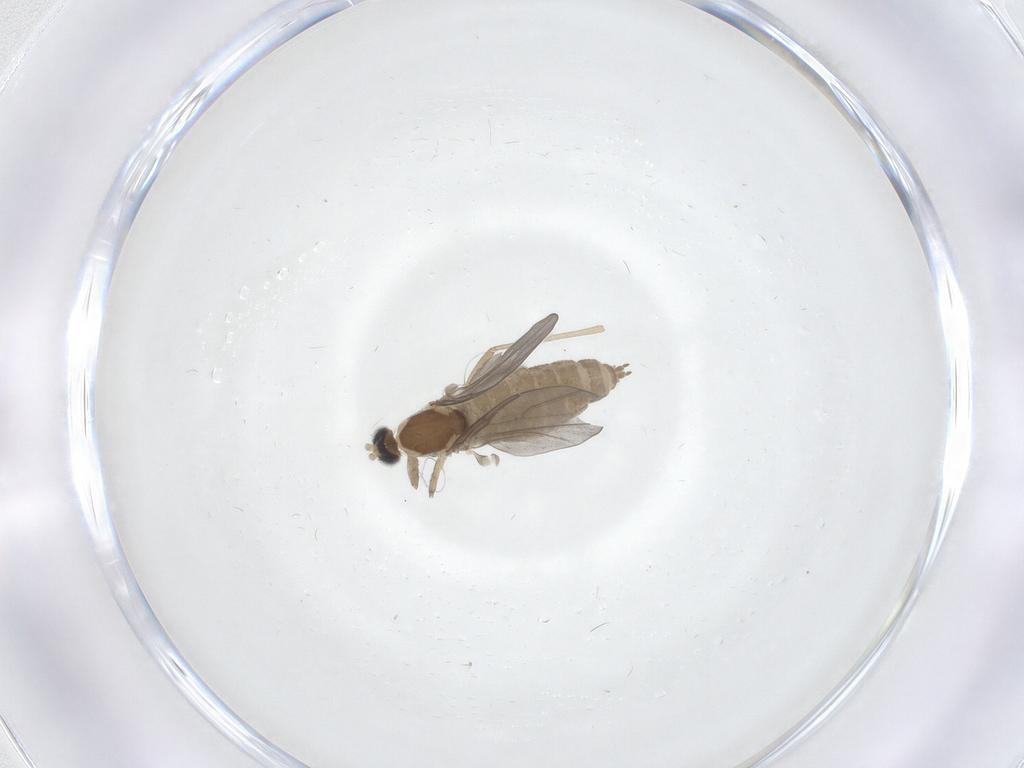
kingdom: Animalia
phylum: Arthropoda
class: Insecta
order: Diptera
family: Cecidomyiidae
